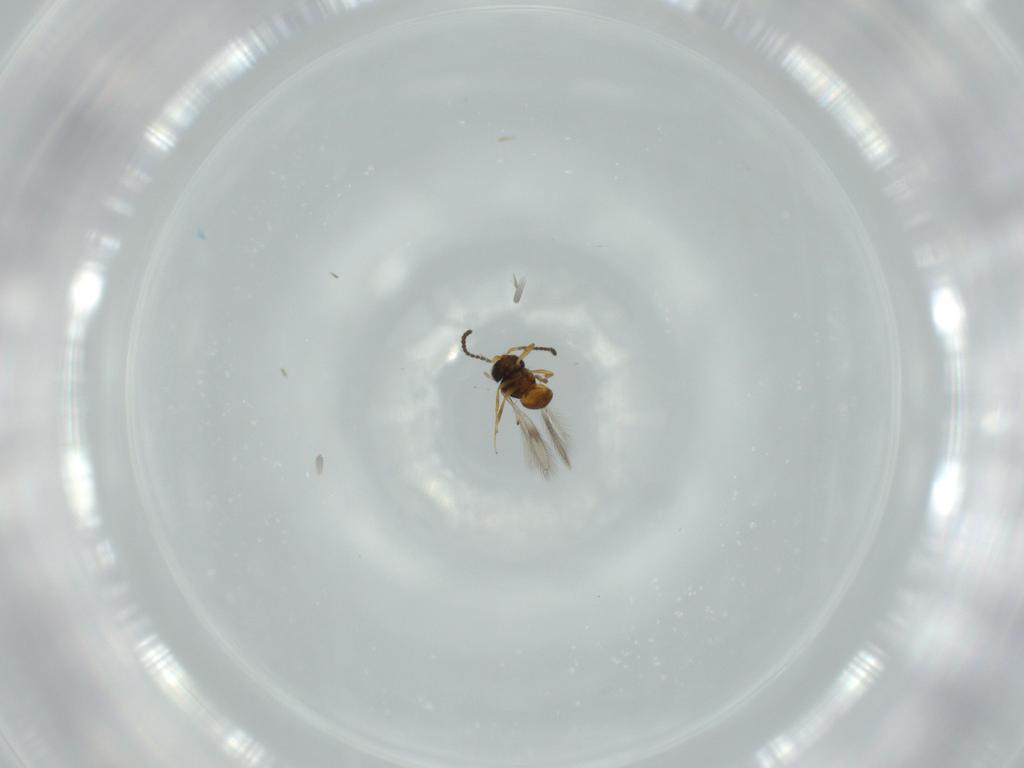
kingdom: Animalia
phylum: Arthropoda
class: Insecta
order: Hymenoptera
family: Scelionidae
